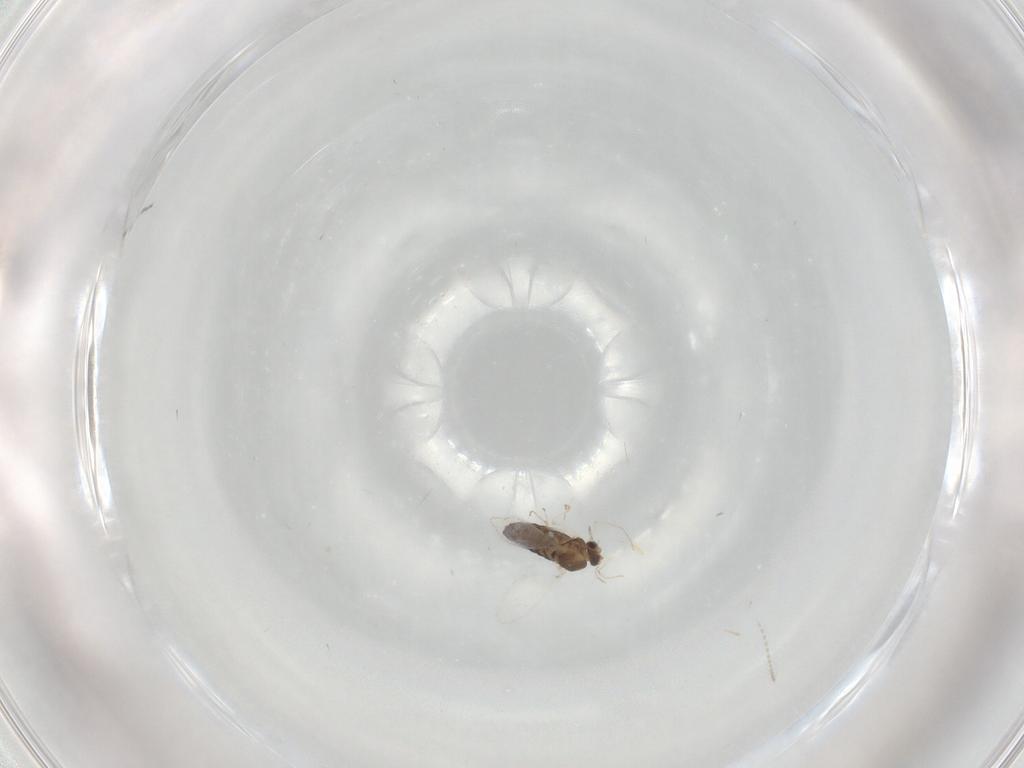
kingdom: Animalia
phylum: Arthropoda
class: Insecta
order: Diptera
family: Chironomidae
